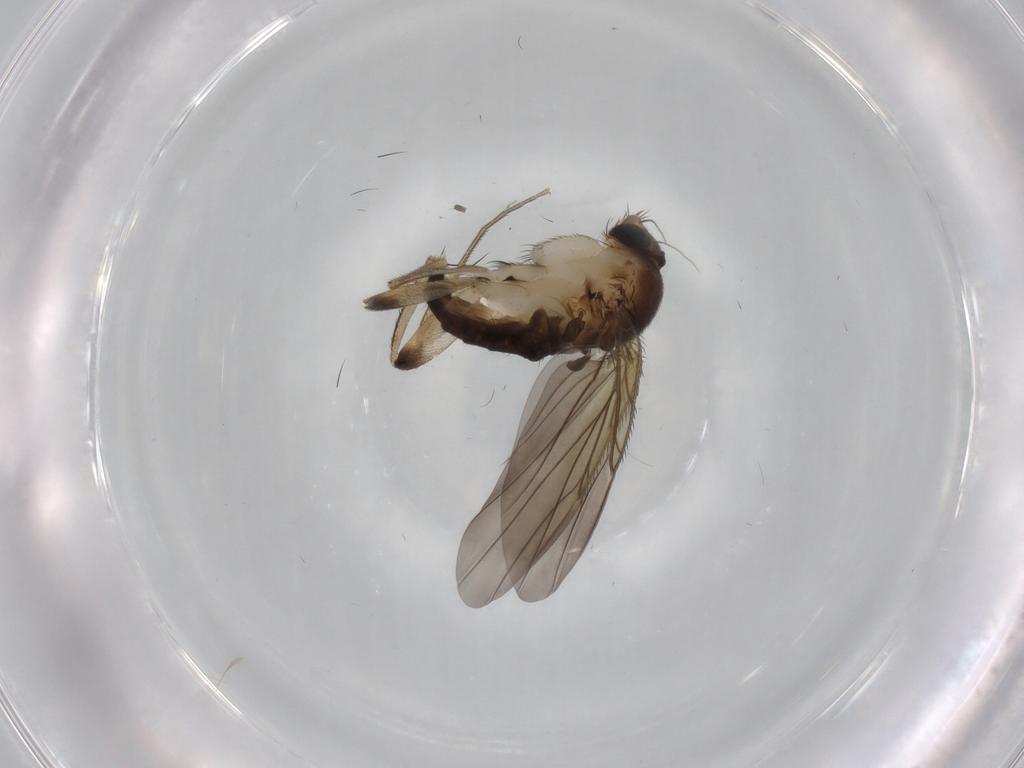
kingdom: Animalia
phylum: Arthropoda
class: Insecta
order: Diptera
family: Phoridae
